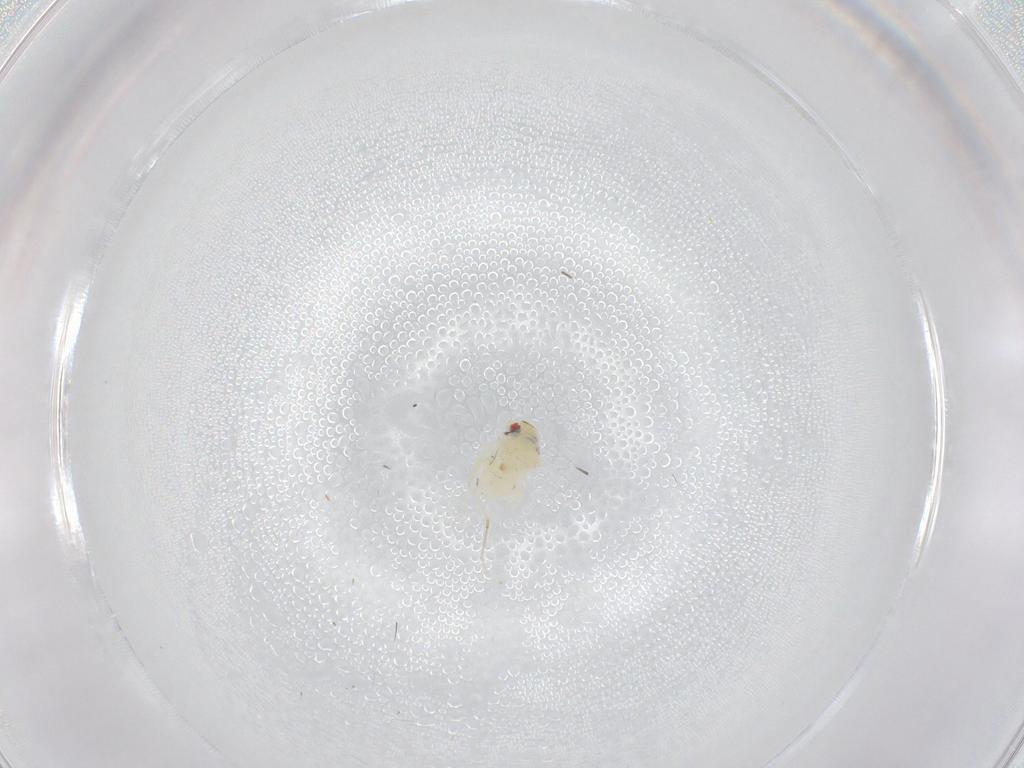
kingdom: Animalia
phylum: Arthropoda
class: Insecta
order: Hemiptera
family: Aleyrodidae
